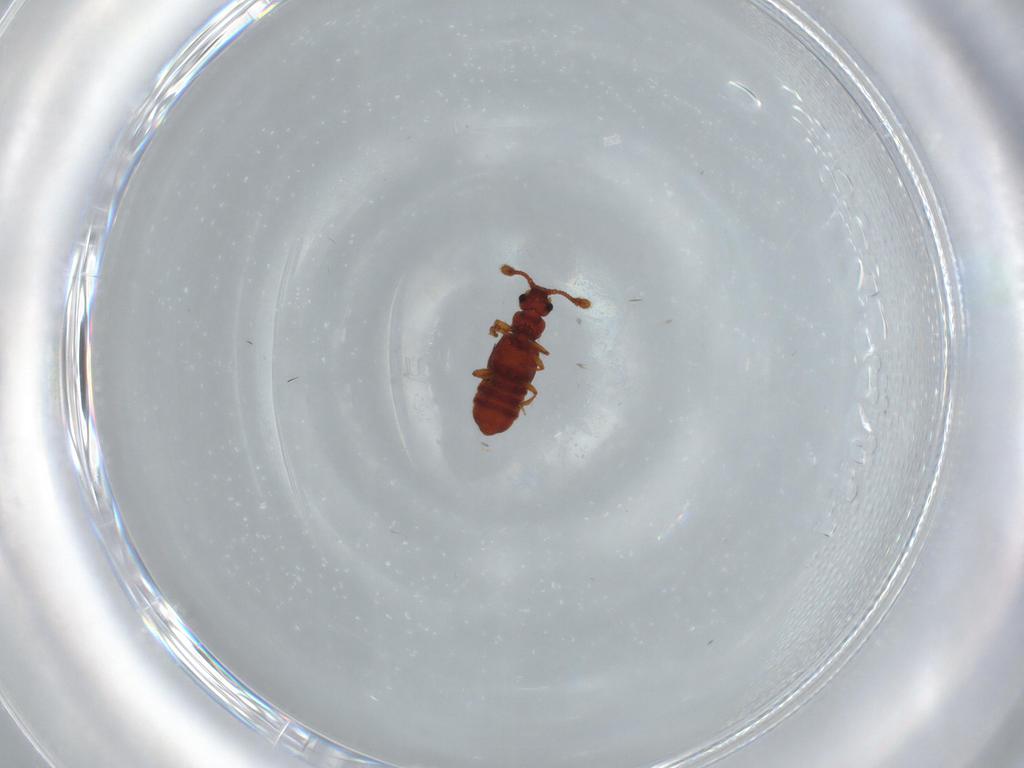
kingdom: Animalia
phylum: Arthropoda
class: Insecta
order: Coleoptera
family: Staphylinidae
